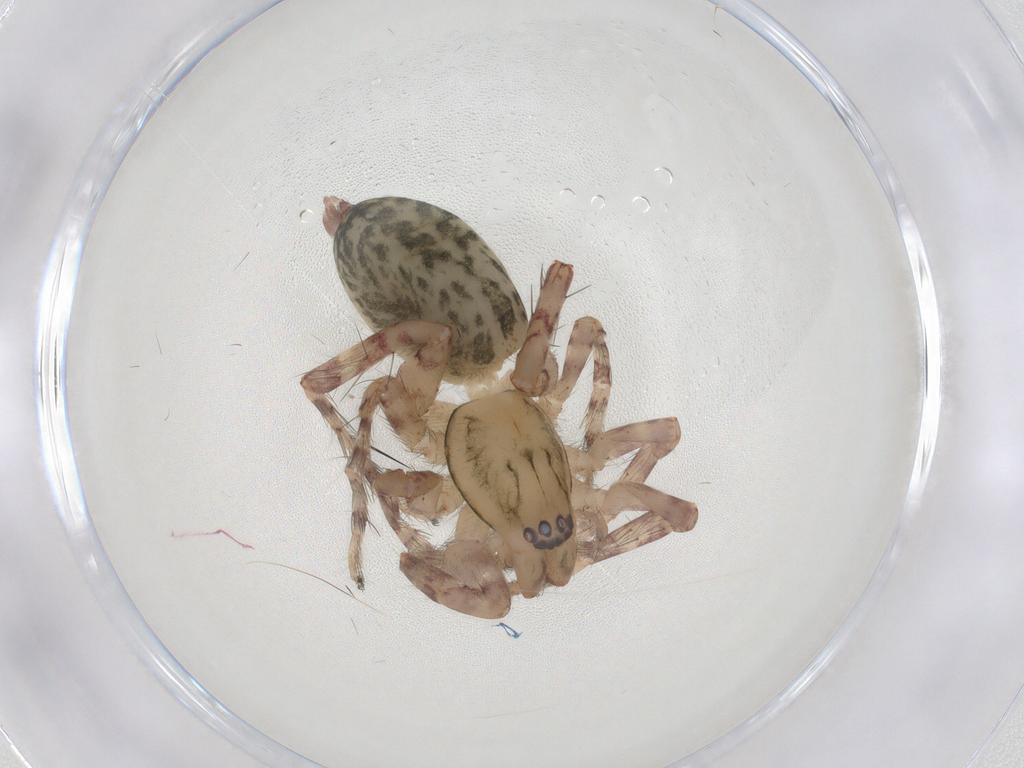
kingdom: Animalia
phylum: Arthropoda
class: Arachnida
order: Araneae
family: Anyphaenidae
